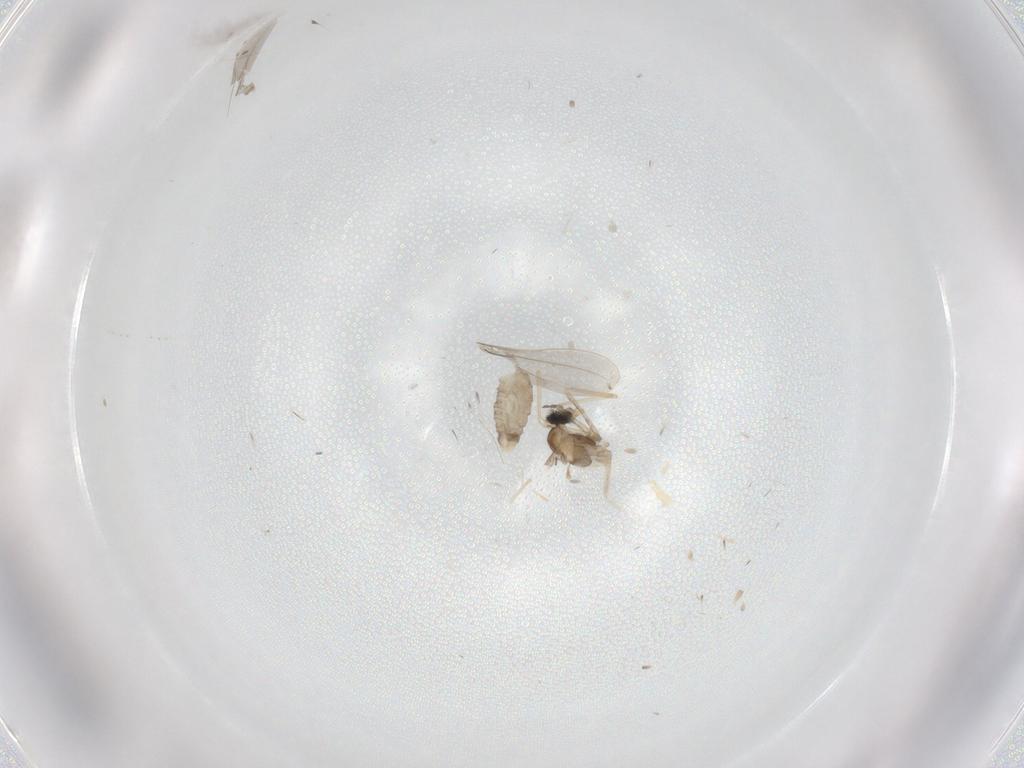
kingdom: Animalia
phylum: Arthropoda
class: Insecta
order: Diptera
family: Cecidomyiidae
